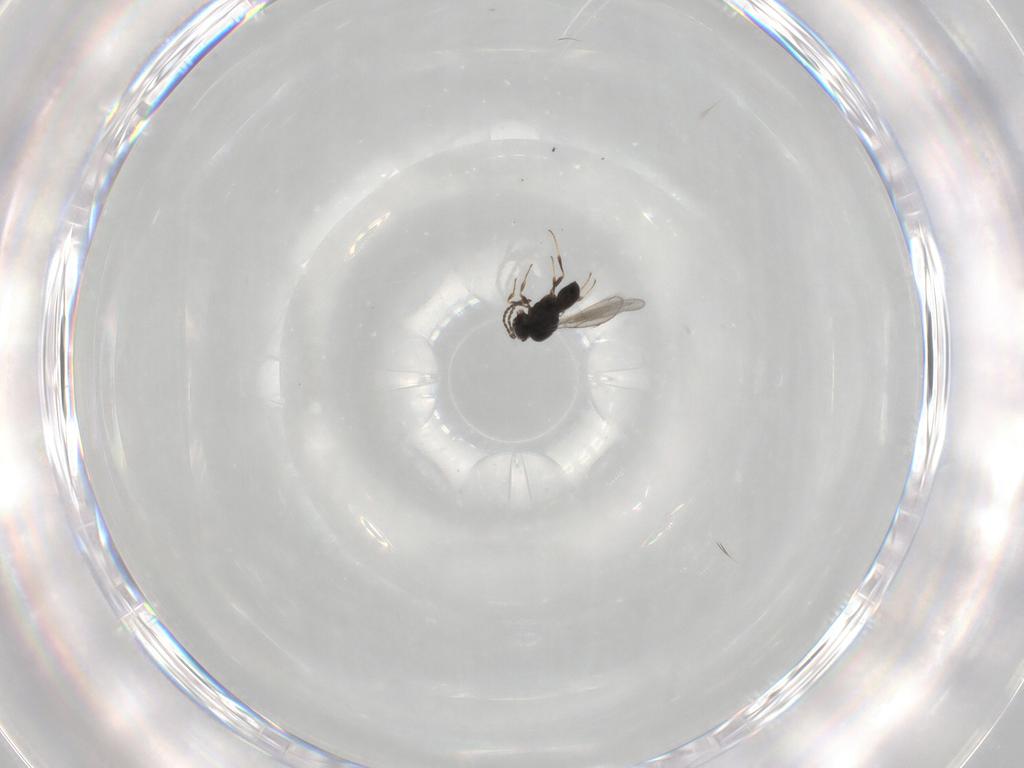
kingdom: Animalia
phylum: Arthropoda
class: Insecta
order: Hymenoptera
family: Scelionidae
